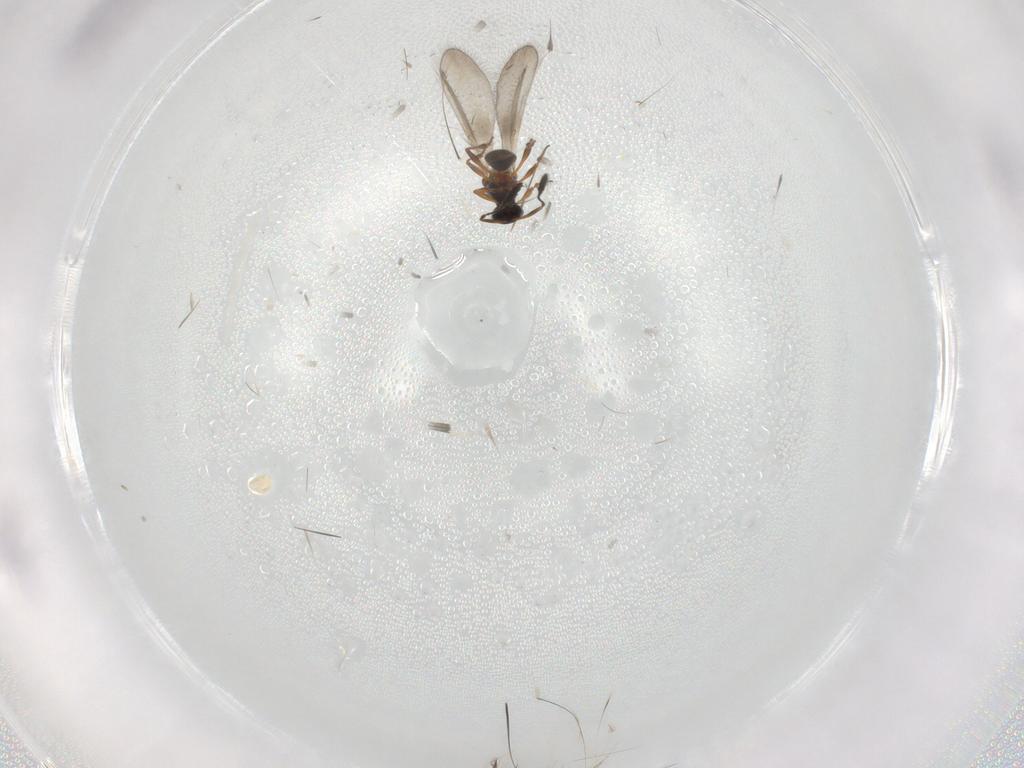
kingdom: Animalia
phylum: Arthropoda
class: Insecta
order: Hymenoptera
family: Platygastridae
